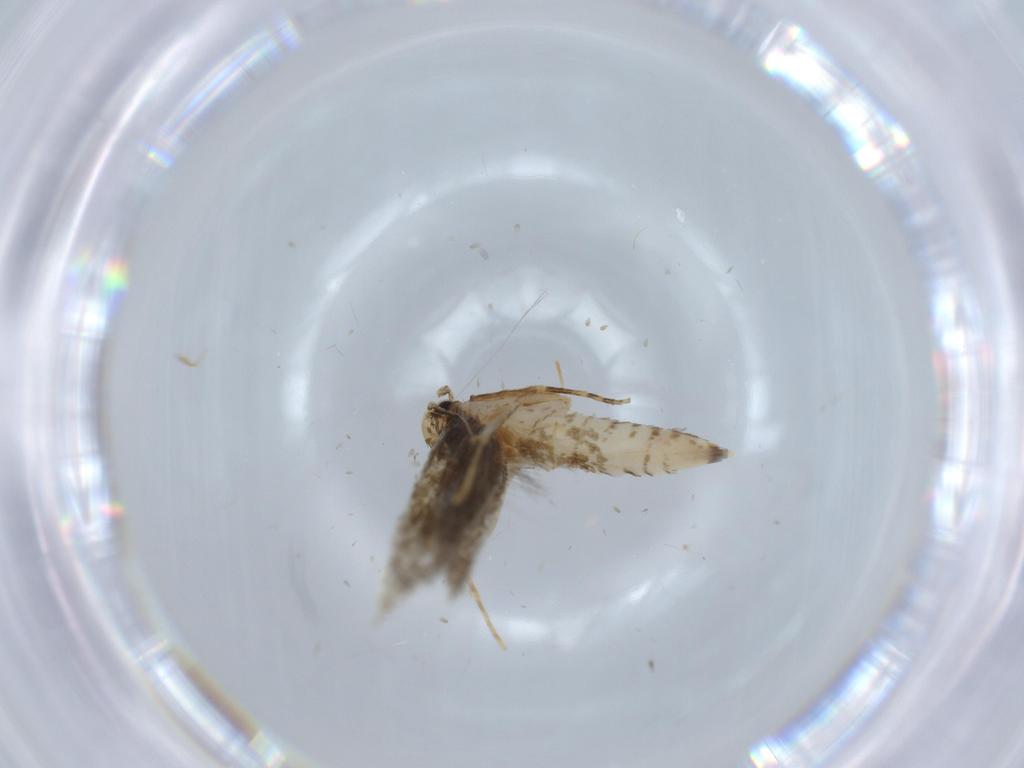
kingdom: Animalia
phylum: Arthropoda
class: Insecta
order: Lepidoptera
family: Tineidae
